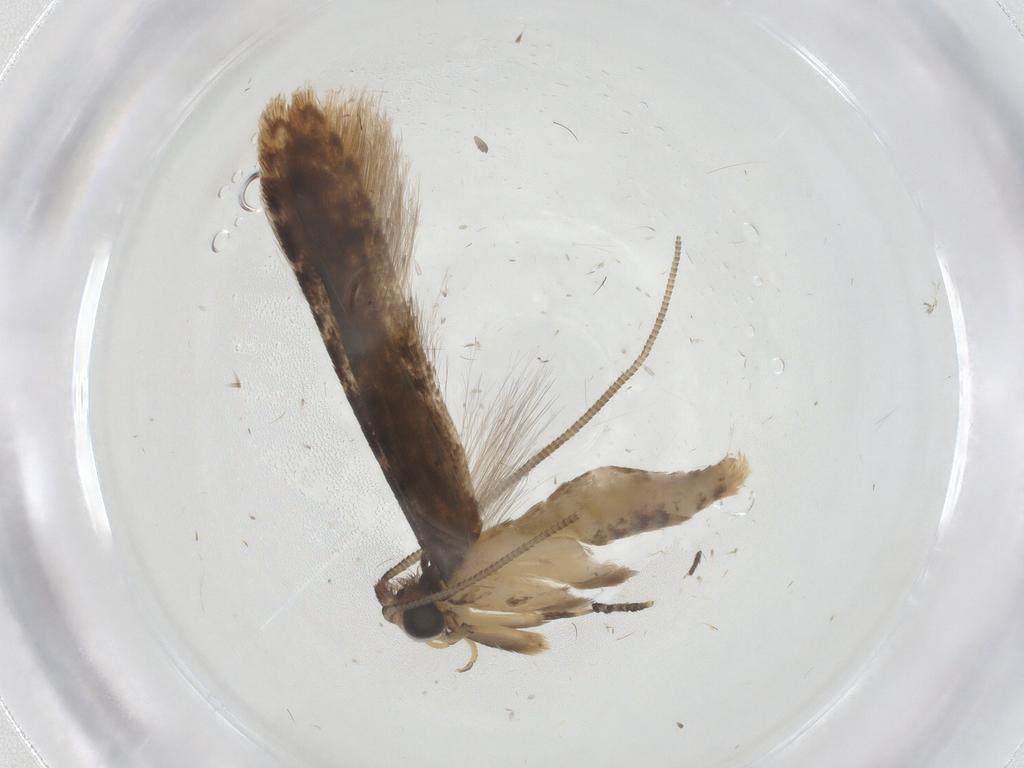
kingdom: Animalia
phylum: Arthropoda
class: Insecta
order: Lepidoptera
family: Tineidae
